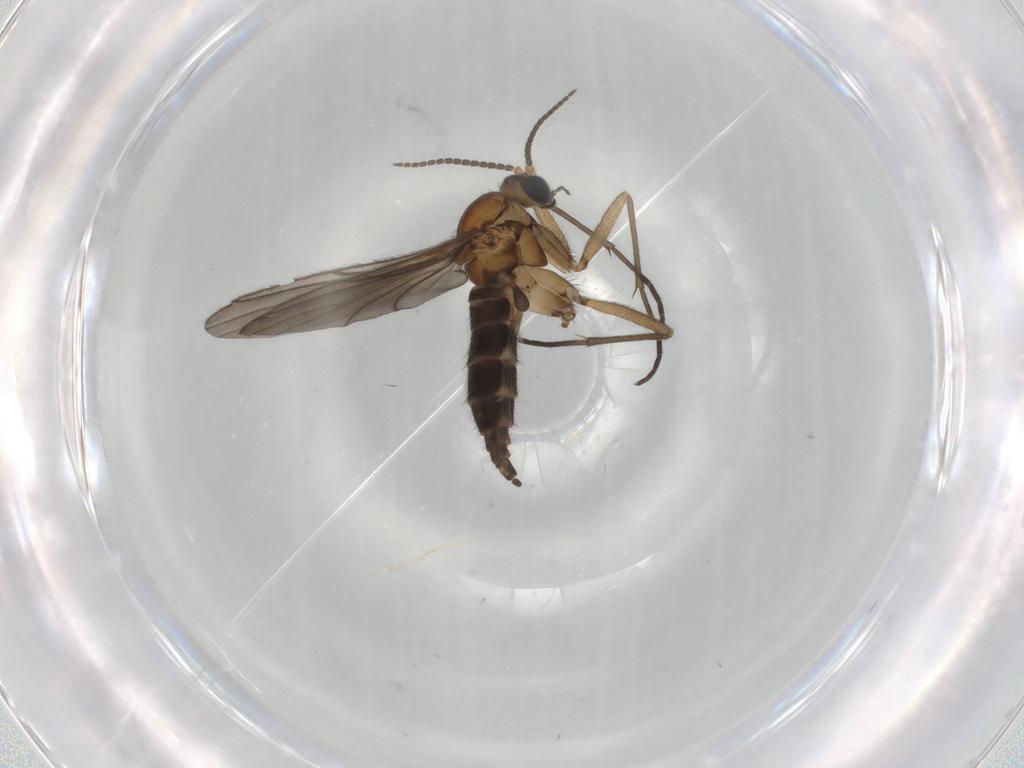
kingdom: Animalia
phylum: Arthropoda
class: Insecta
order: Diptera
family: Sciaridae
